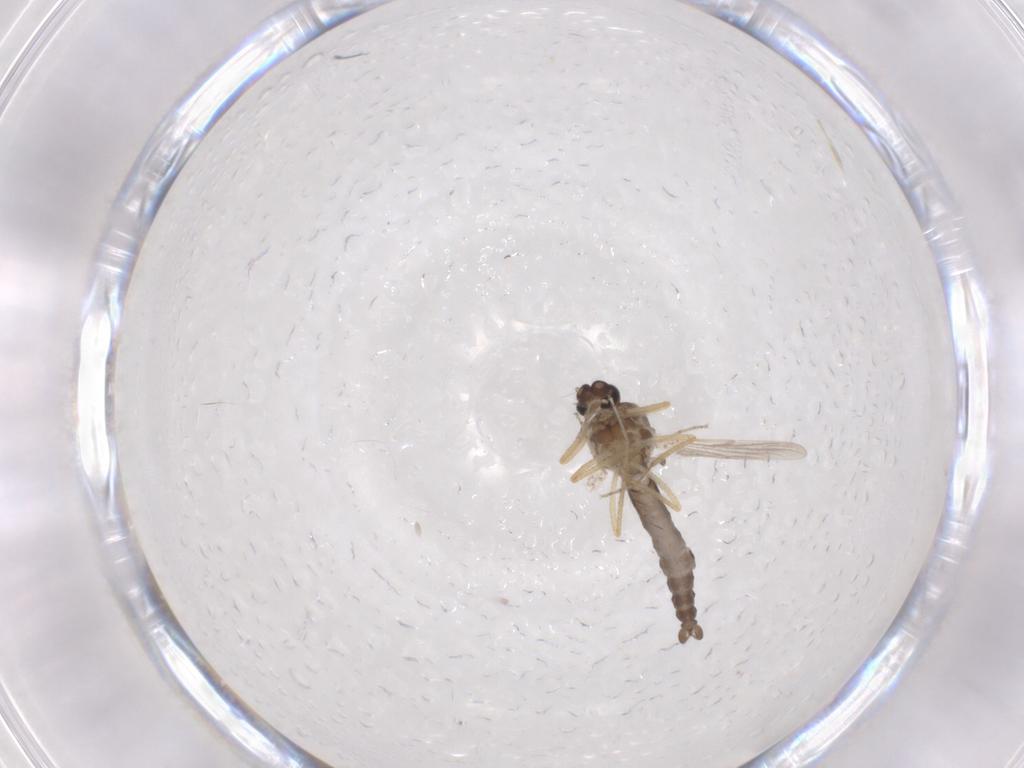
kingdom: Animalia
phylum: Arthropoda
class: Insecta
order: Diptera
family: Ceratopogonidae
